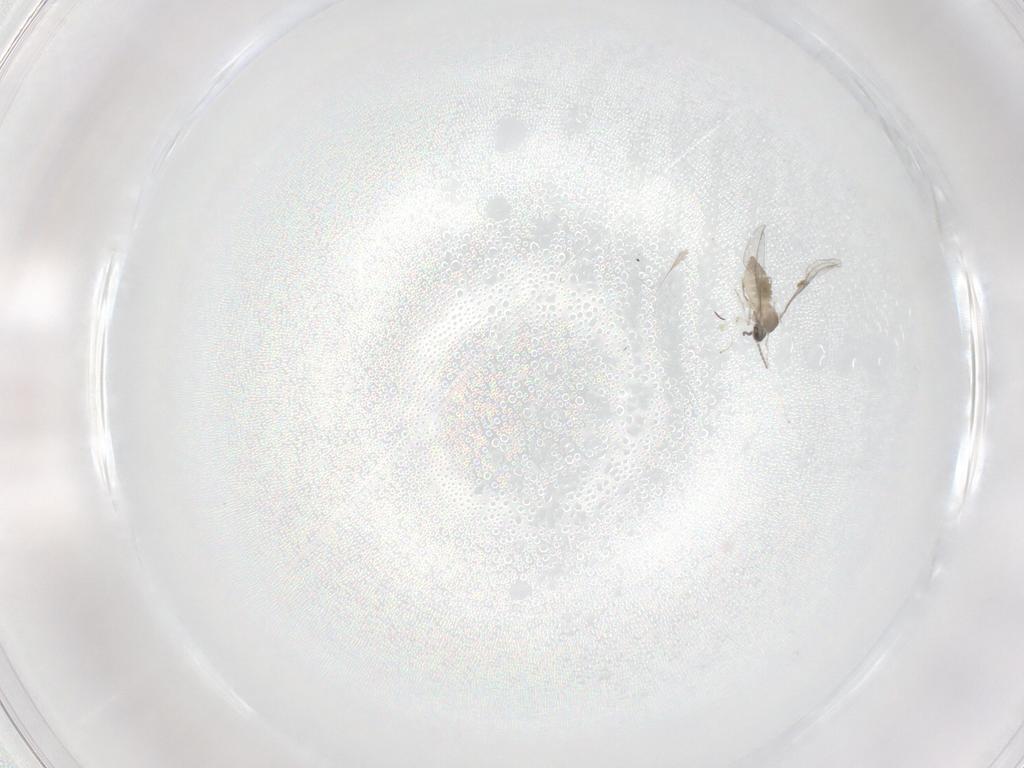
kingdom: Animalia
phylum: Arthropoda
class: Insecta
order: Diptera
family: Cecidomyiidae
